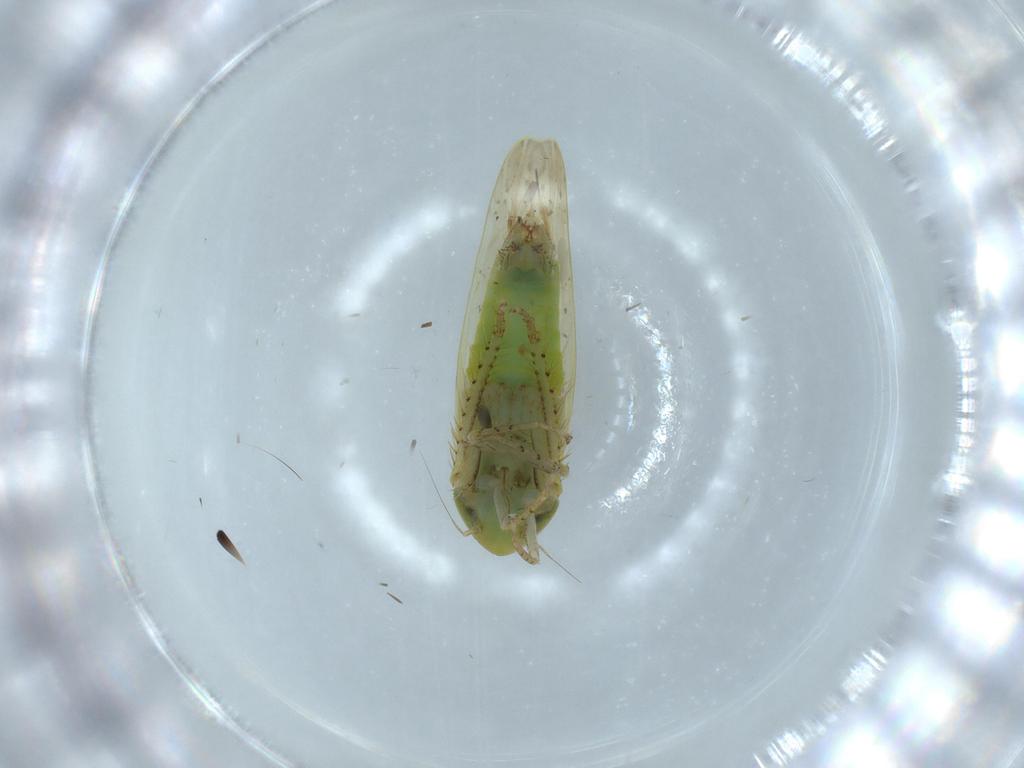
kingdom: Animalia
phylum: Arthropoda
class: Insecta
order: Hemiptera
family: Cicadellidae
